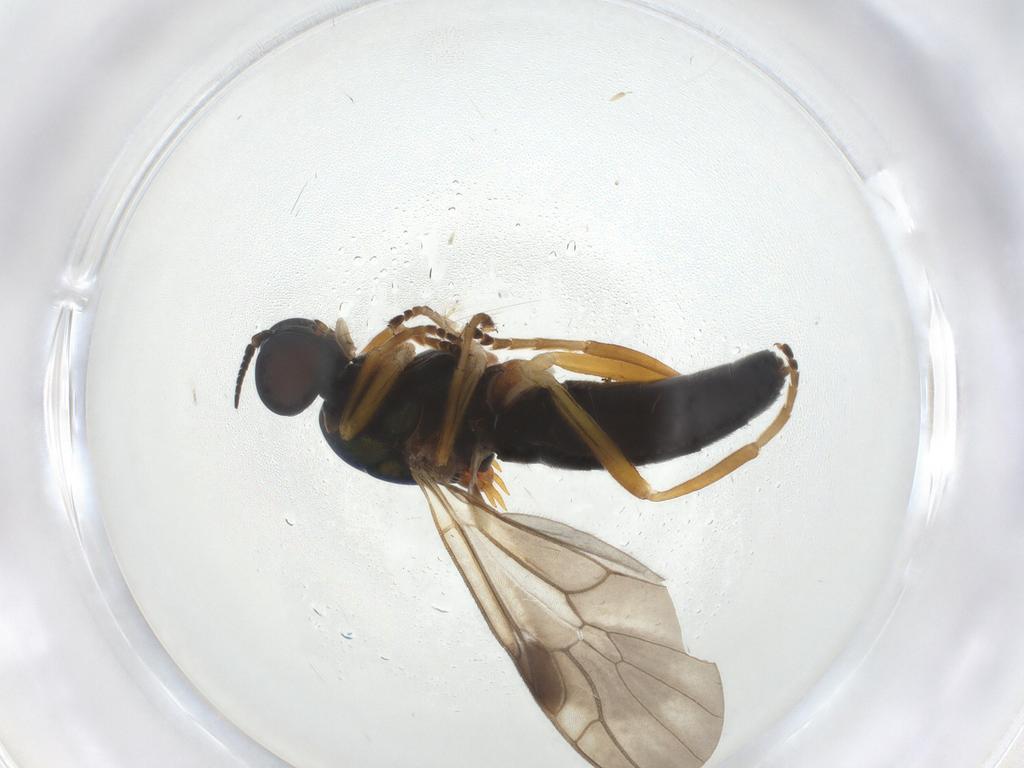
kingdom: Animalia
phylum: Arthropoda
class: Insecta
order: Diptera
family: Stratiomyidae
